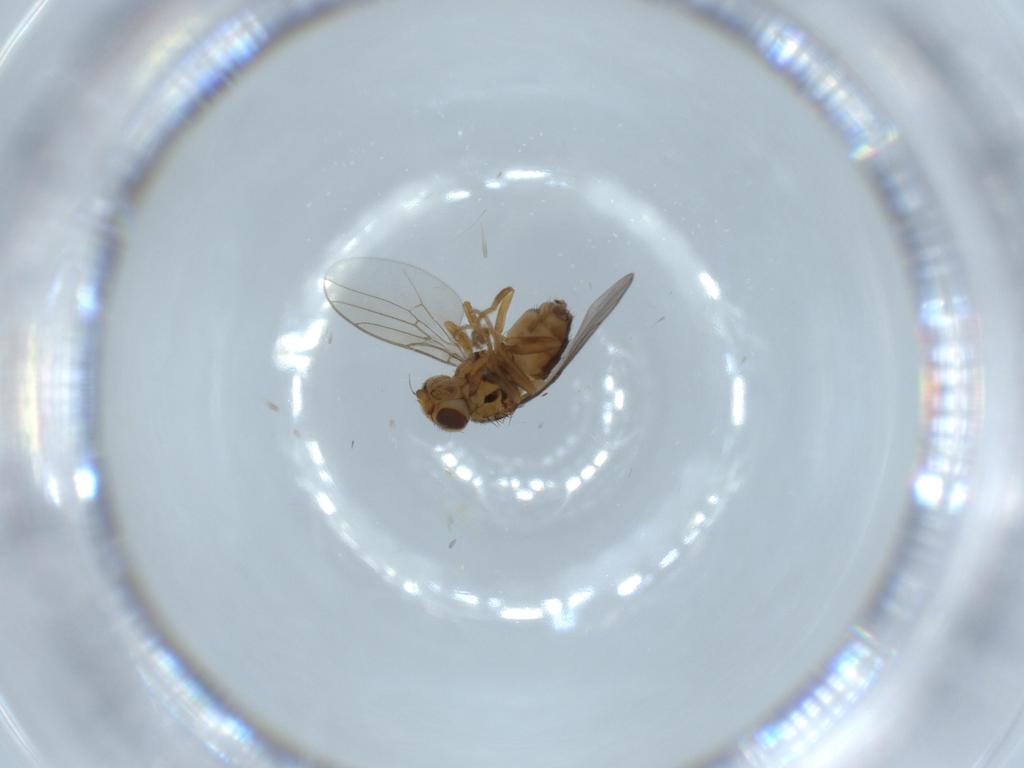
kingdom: Animalia
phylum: Arthropoda
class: Insecta
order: Diptera
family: Chloropidae
